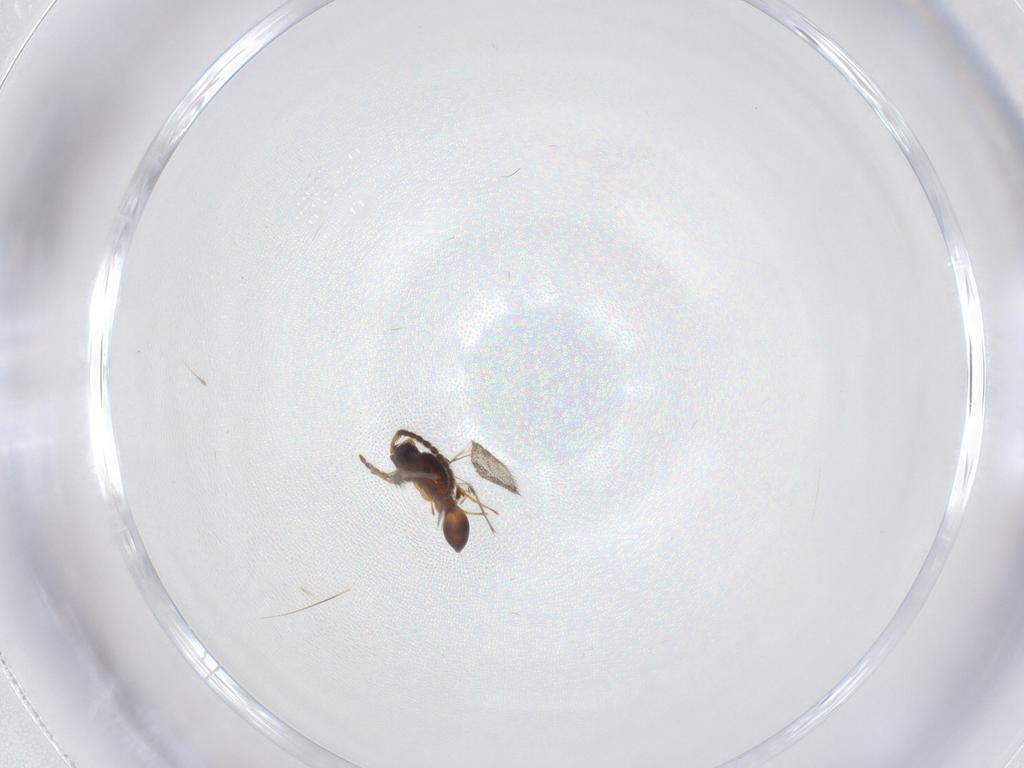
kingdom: Animalia
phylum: Arthropoda
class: Insecta
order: Hymenoptera
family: Diapriidae
